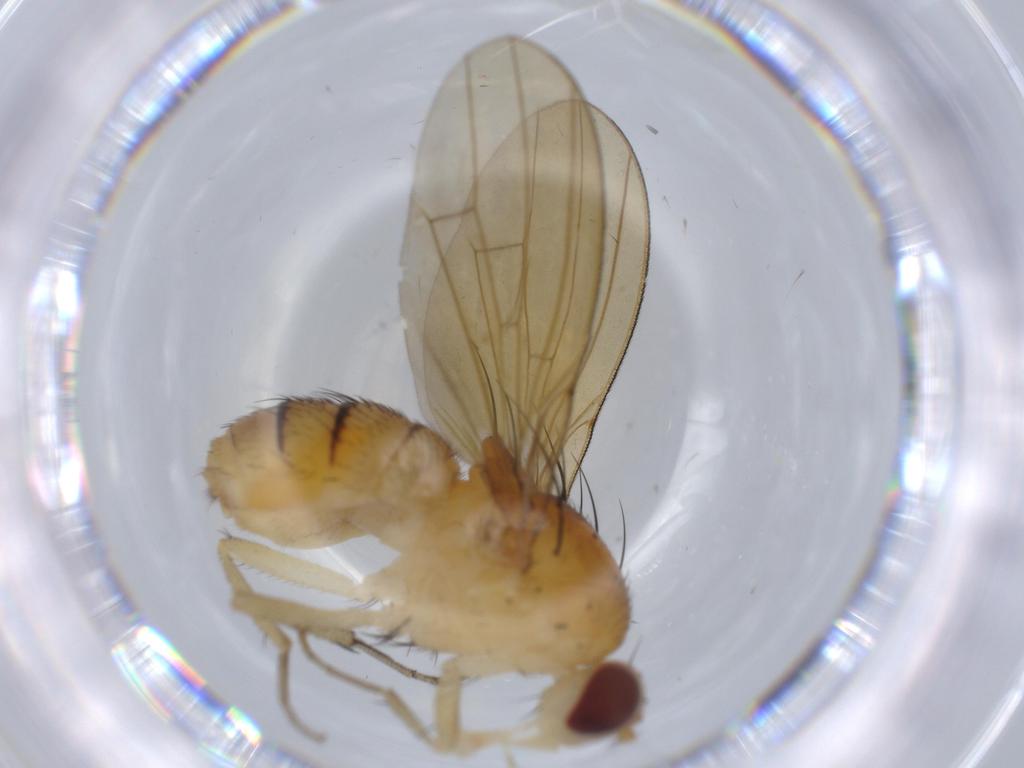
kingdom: Animalia
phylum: Arthropoda
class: Insecta
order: Diptera
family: Lauxaniidae
